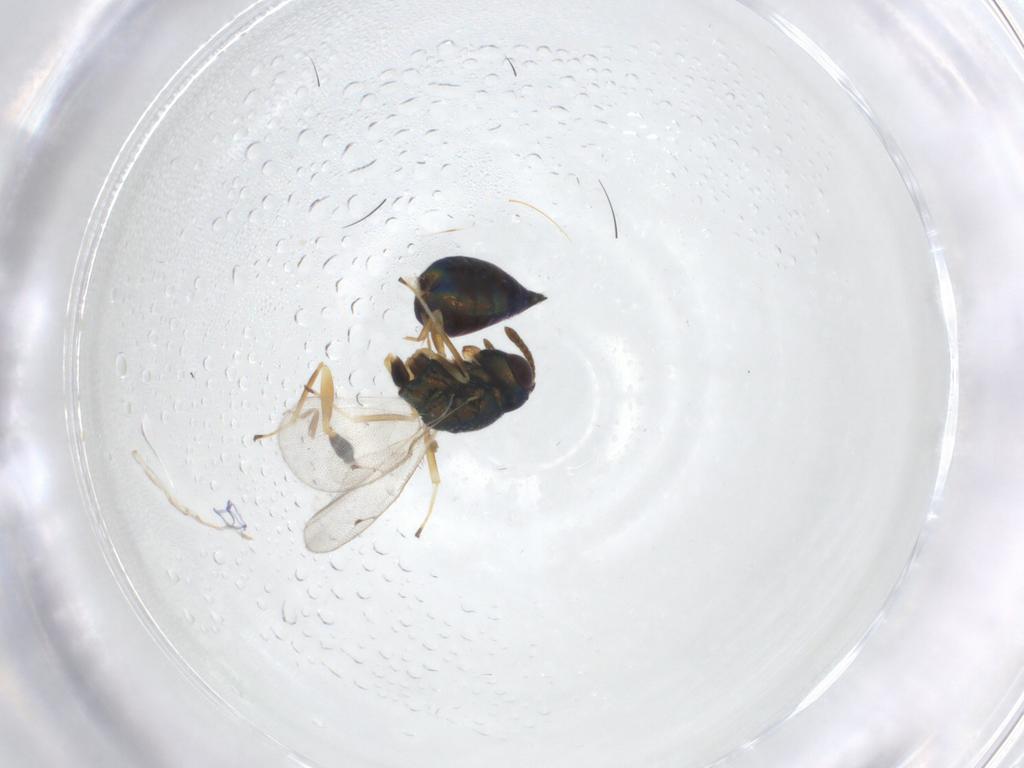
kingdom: Animalia
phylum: Arthropoda
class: Insecta
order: Hymenoptera
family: Pteromalidae
